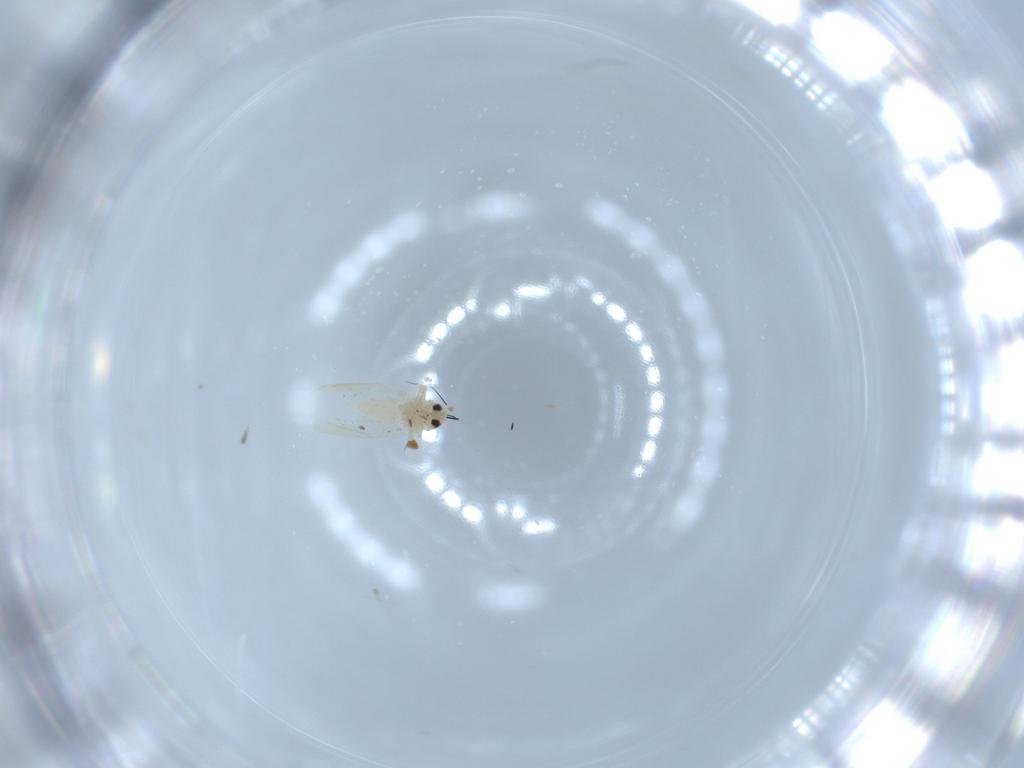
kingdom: Animalia
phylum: Arthropoda
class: Insecta
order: Hemiptera
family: Aleyrodidae
